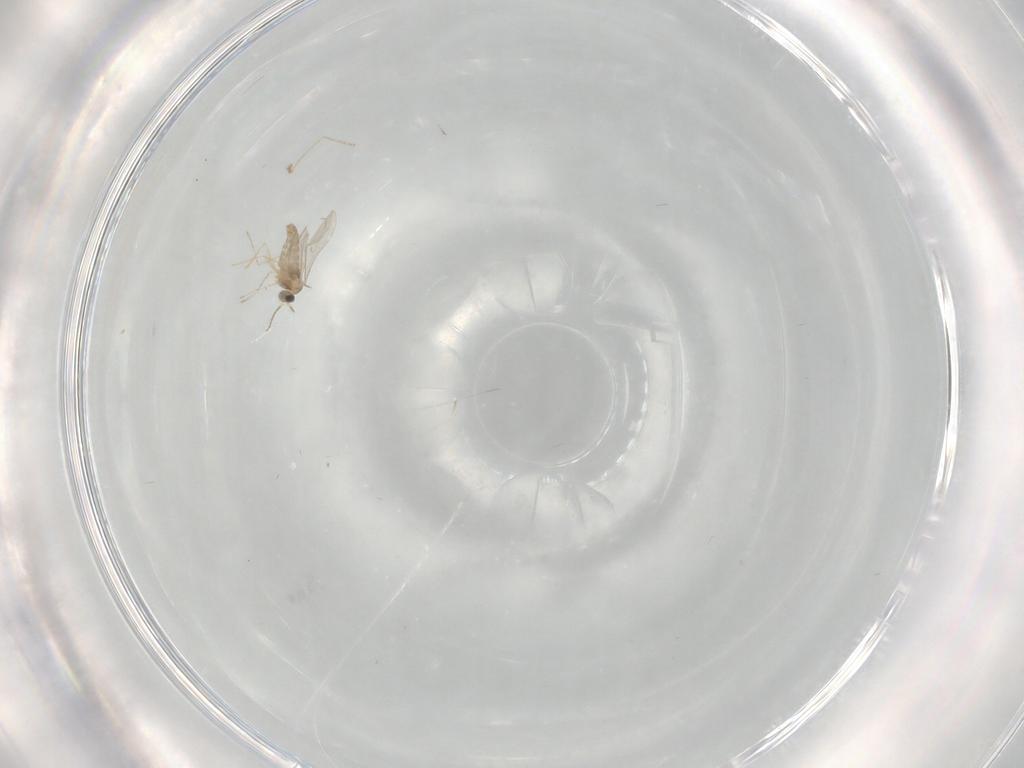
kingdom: Animalia
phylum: Arthropoda
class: Insecta
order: Diptera
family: Cecidomyiidae
